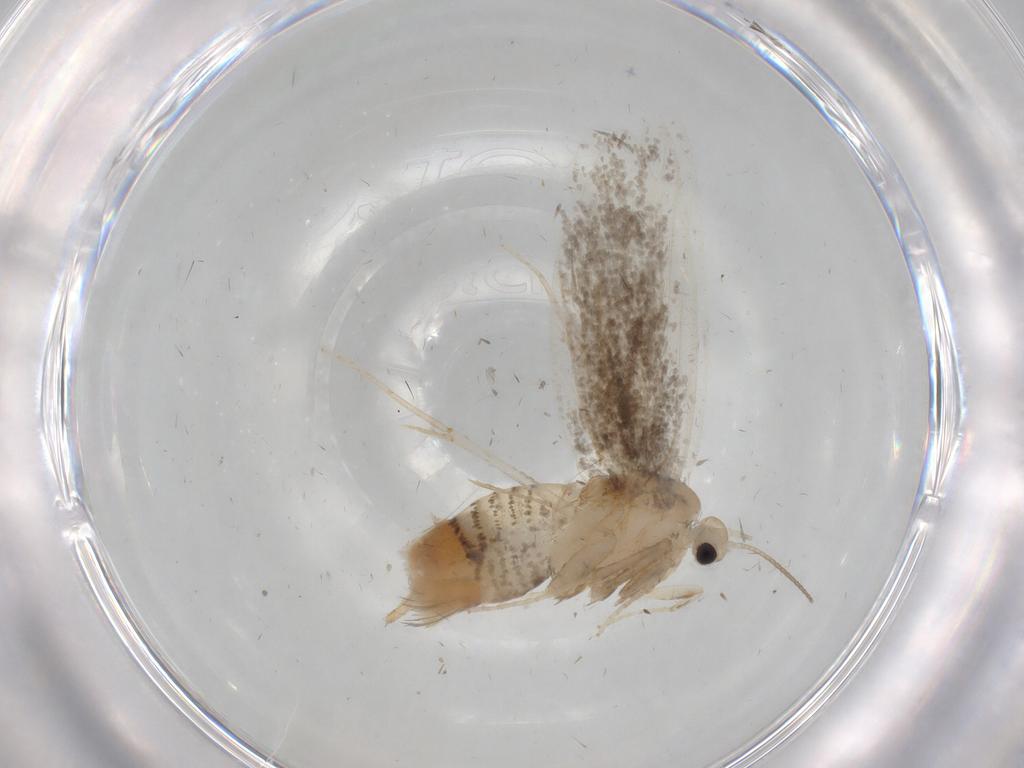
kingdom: Animalia
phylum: Arthropoda
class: Insecta
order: Lepidoptera
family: Psychidae
